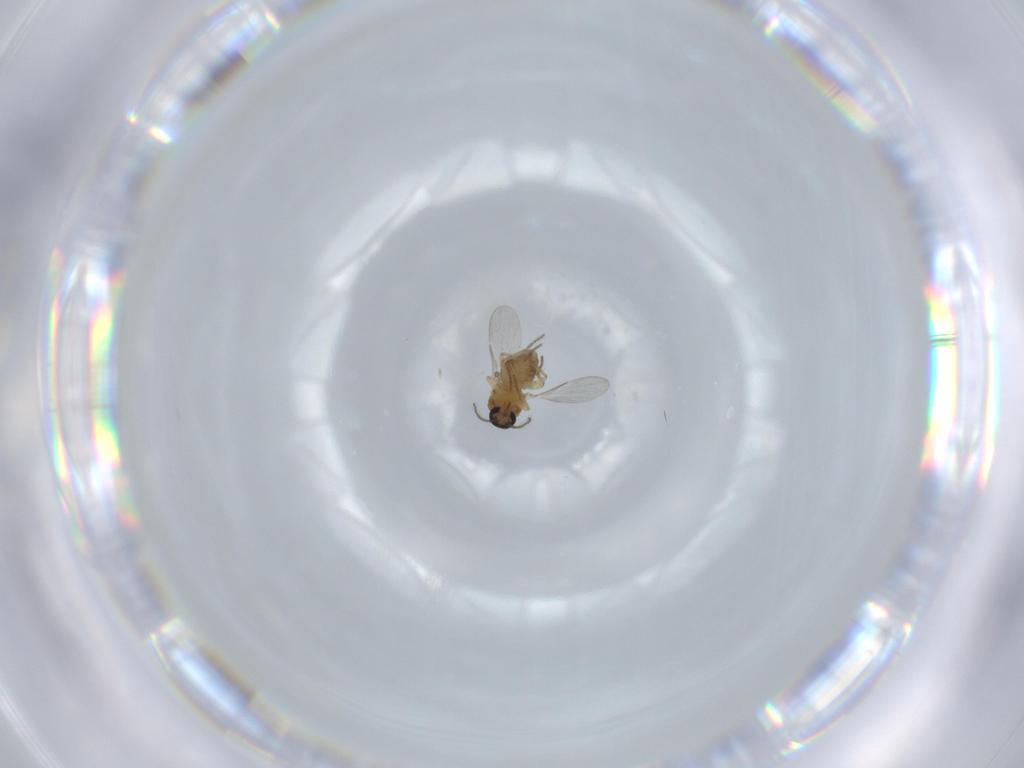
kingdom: Animalia
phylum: Arthropoda
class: Insecta
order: Diptera
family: Ceratopogonidae
